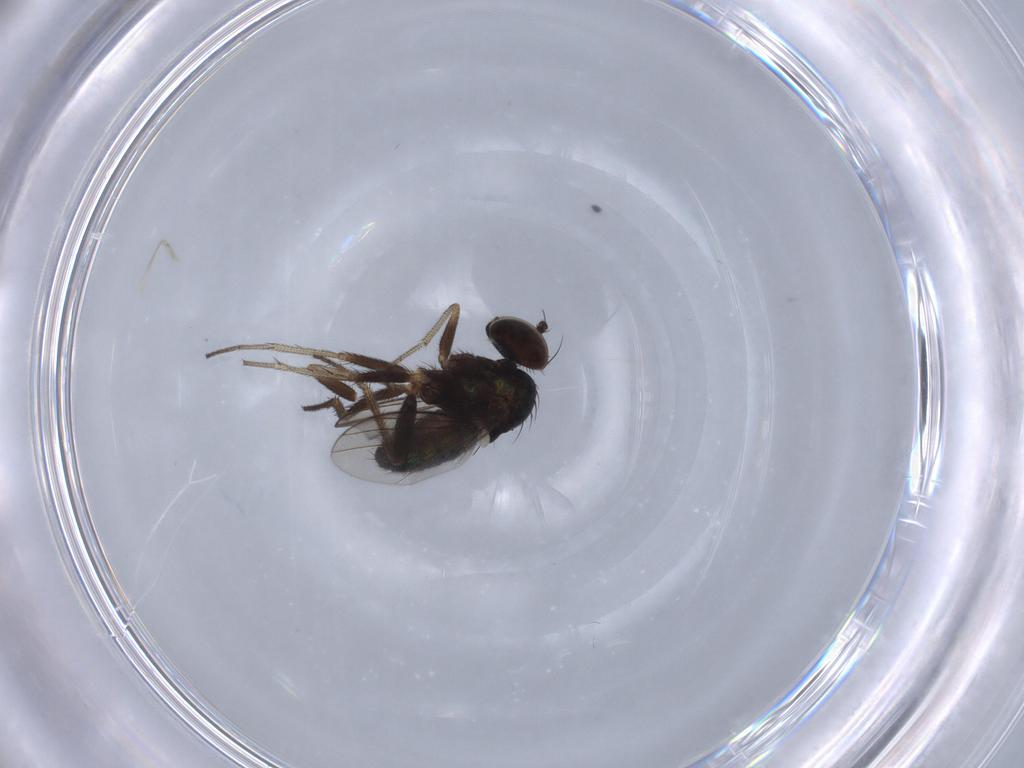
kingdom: Animalia
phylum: Arthropoda
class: Insecta
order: Diptera
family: Dolichopodidae
